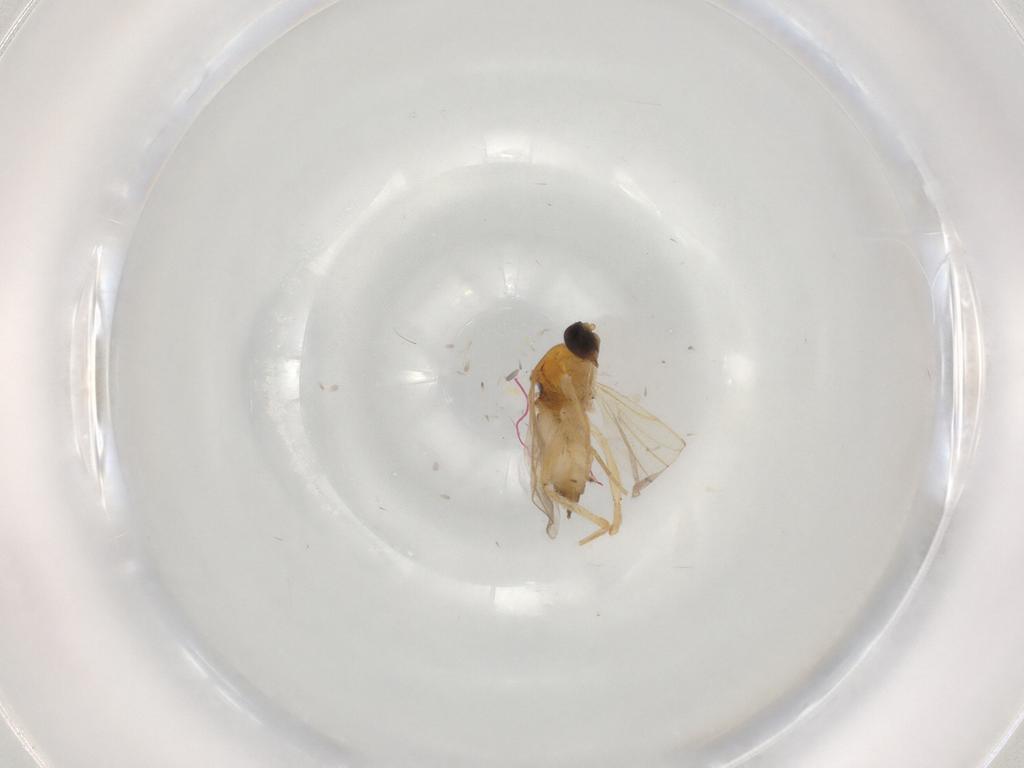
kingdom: Animalia
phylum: Arthropoda
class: Insecta
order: Diptera
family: Hybotidae
